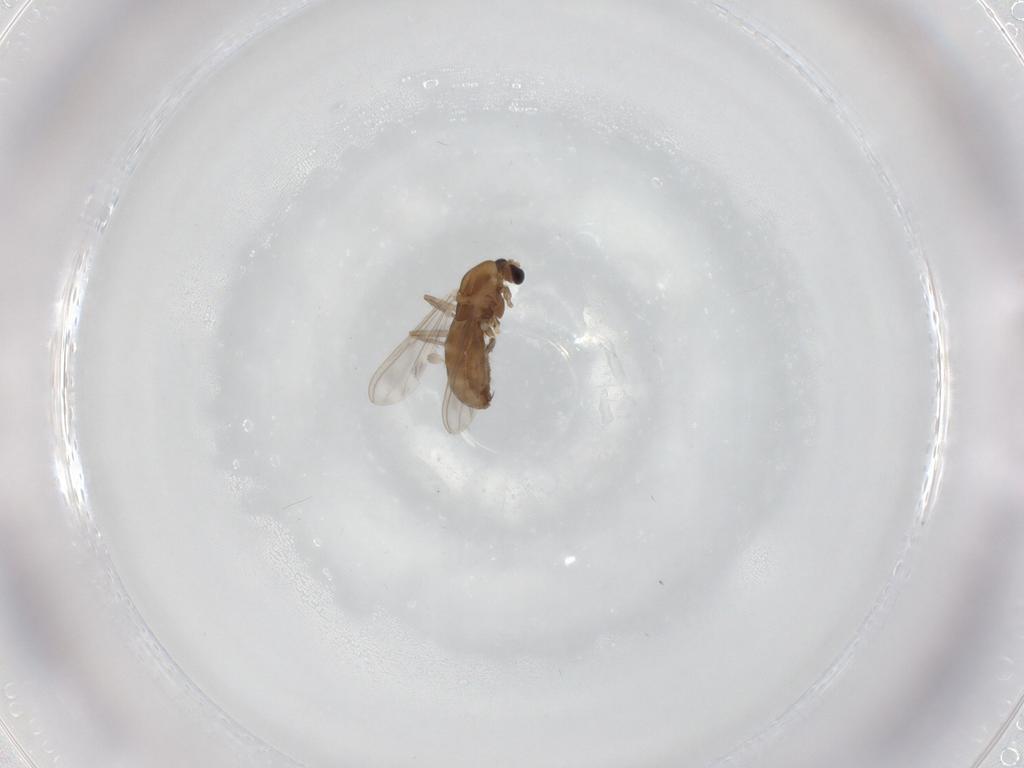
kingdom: Animalia
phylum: Arthropoda
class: Insecta
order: Diptera
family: Chironomidae
